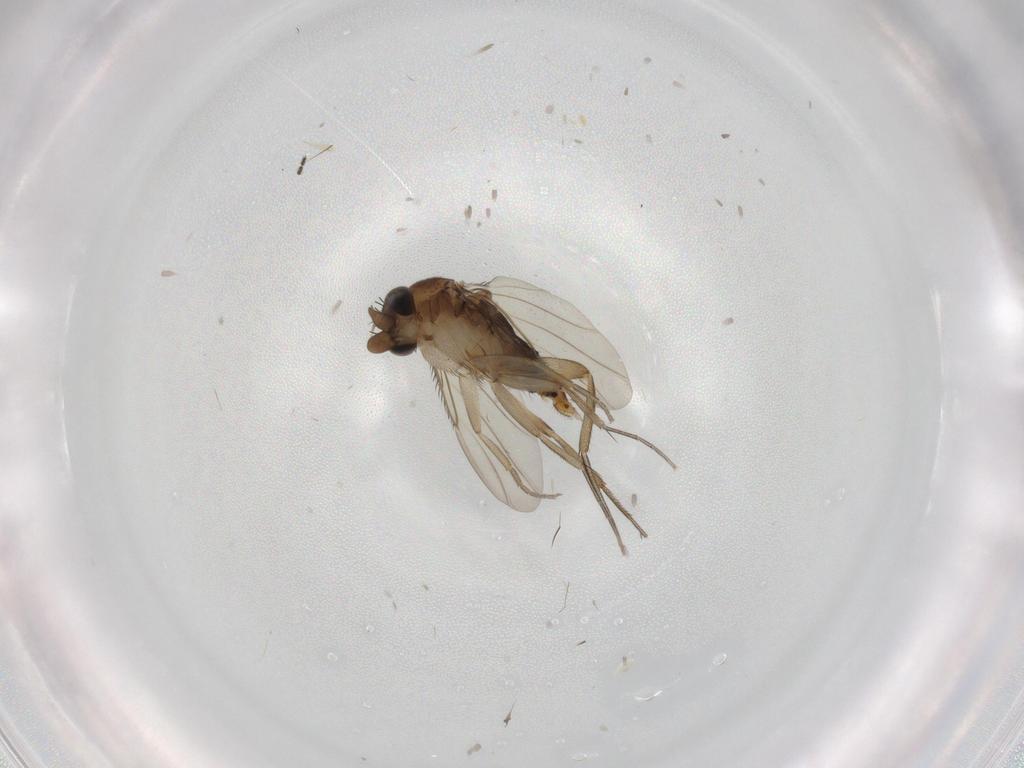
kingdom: Animalia
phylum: Arthropoda
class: Insecta
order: Diptera
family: Phoridae
